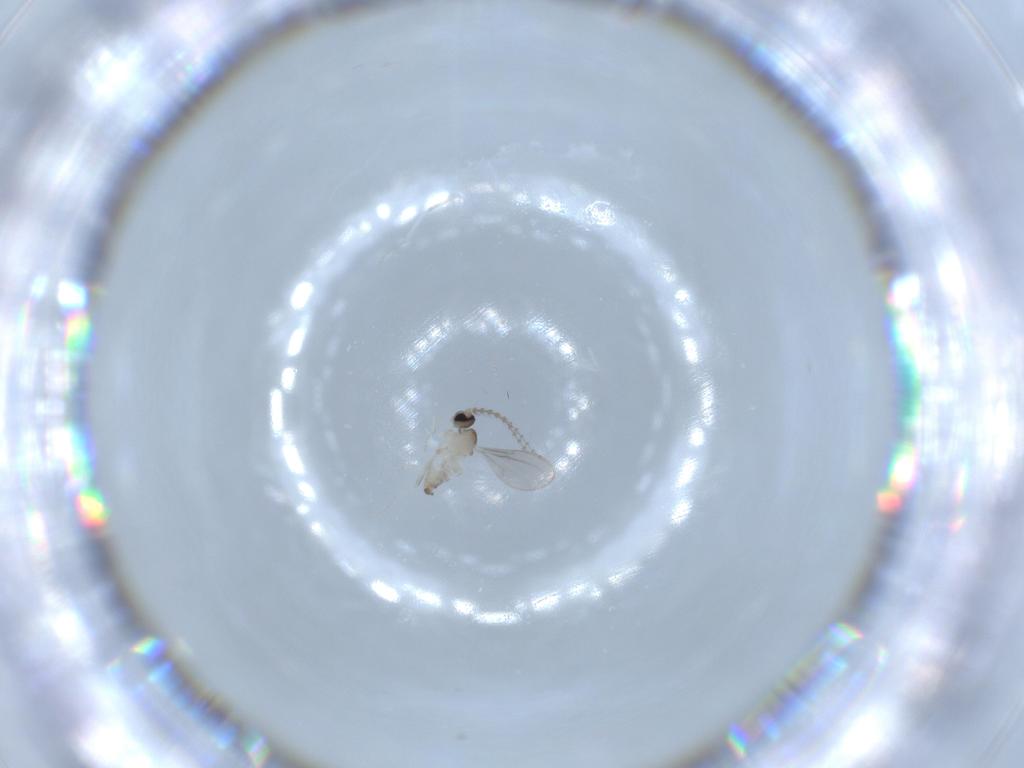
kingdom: Animalia
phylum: Arthropoda
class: Insecta
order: Diptera
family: Cecidomyiidae
